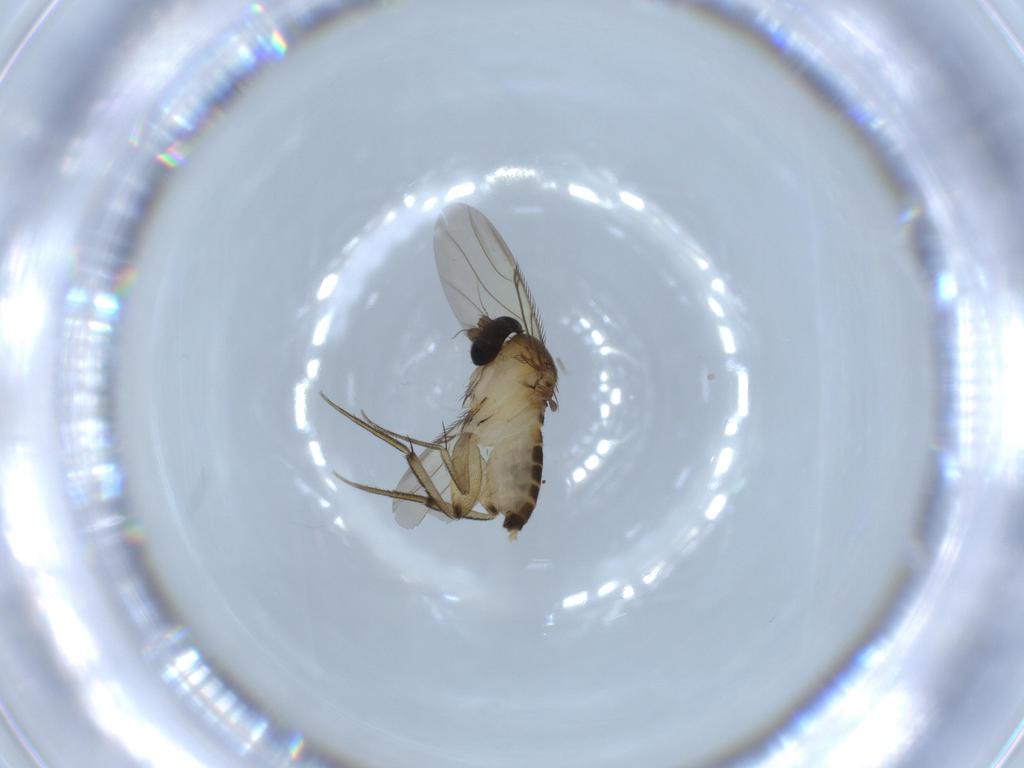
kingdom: Animalia
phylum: Arthropoda
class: Insecta
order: Diptera
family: Phoridae
